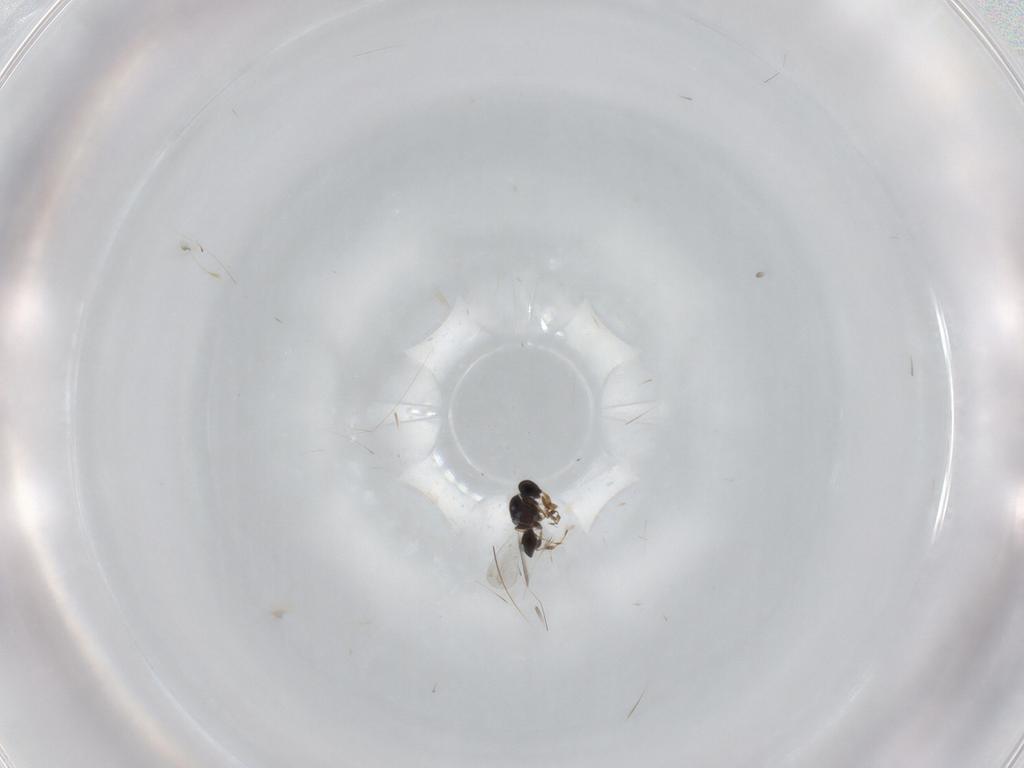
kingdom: Animalia
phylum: Arthropoda
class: Insecta
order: Hymenoptera
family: Platygastridae
